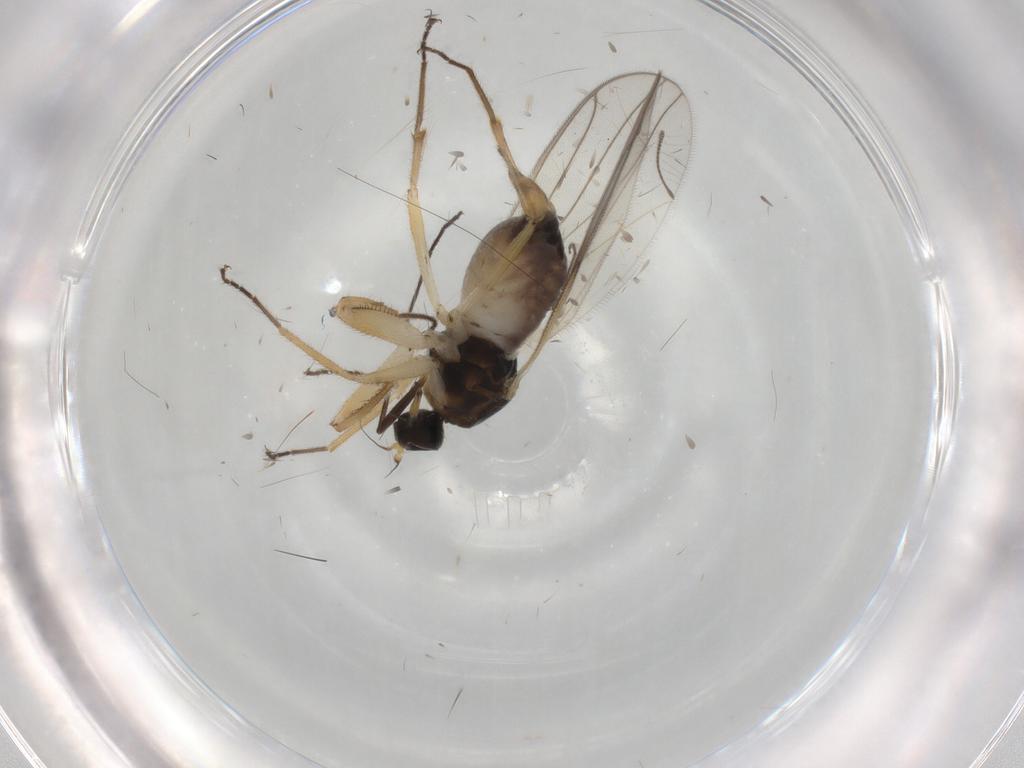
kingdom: Animalia
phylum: Arthropoda
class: Insecta
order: Diptera
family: Hybotidae
